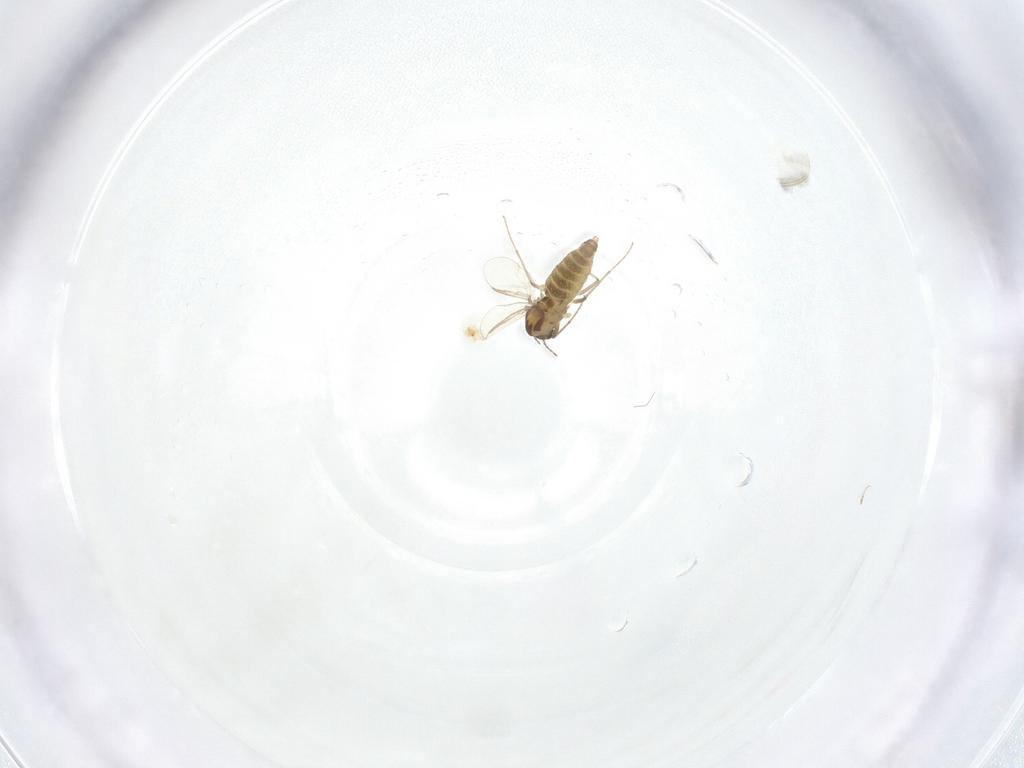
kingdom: Animalia
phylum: Arthropoda
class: Insecta
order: Diptera
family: Chironomidae
